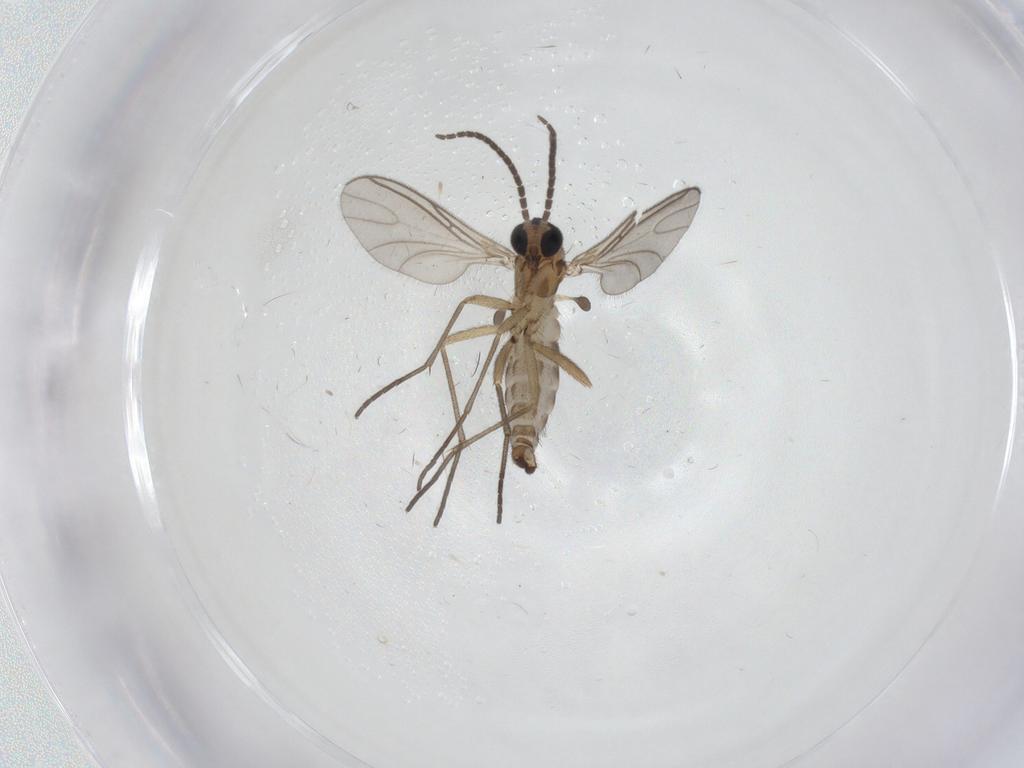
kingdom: Animalia
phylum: Arthropoda
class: Insecta
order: Diptera
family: Sciaridae
